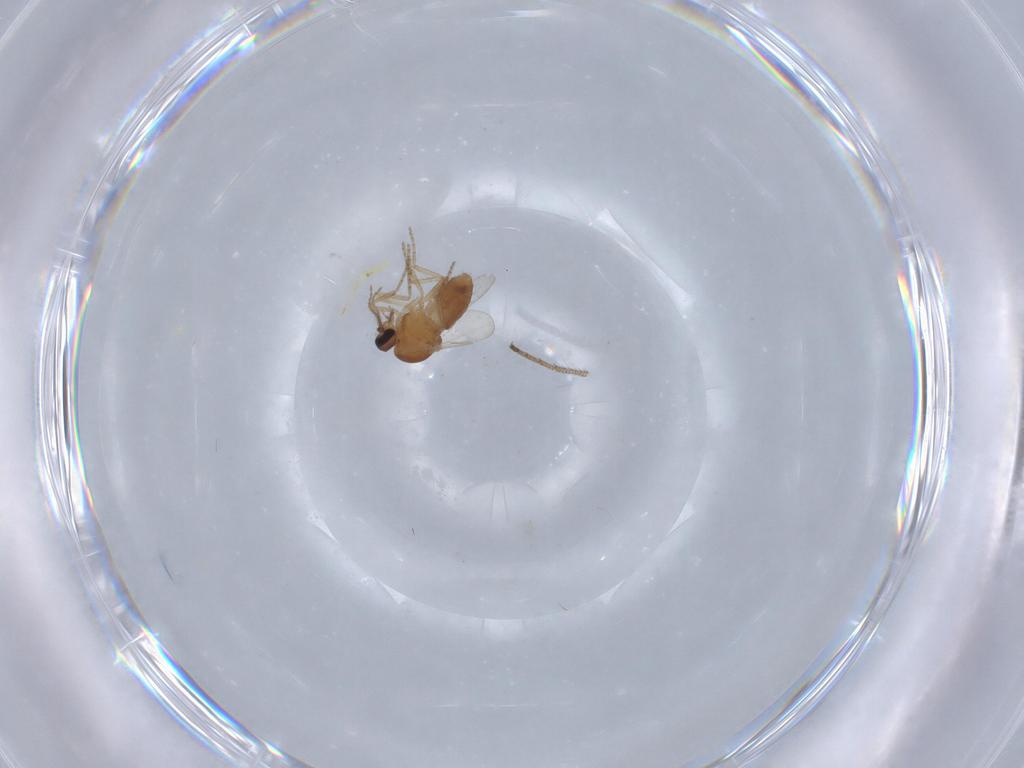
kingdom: Animalia
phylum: Arthropoda
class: Insecta
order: Diptera
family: Ceratopogonidae
